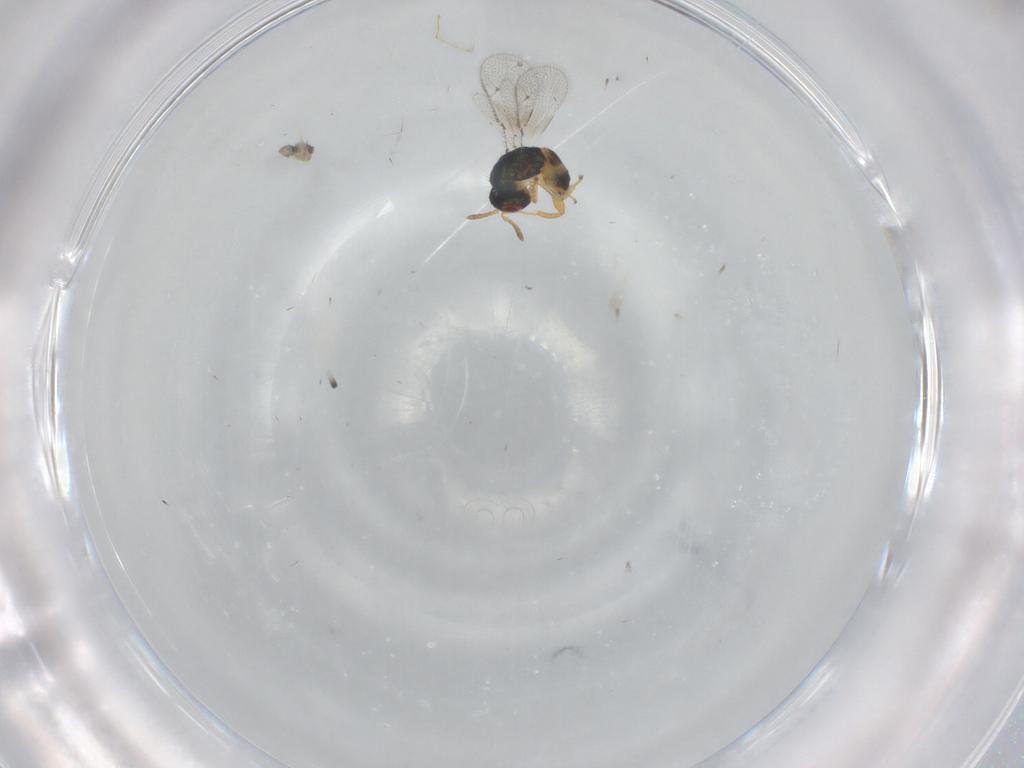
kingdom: Animalia
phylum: Arthropoda
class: Insecta
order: Hymenoptera
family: Torymidae
